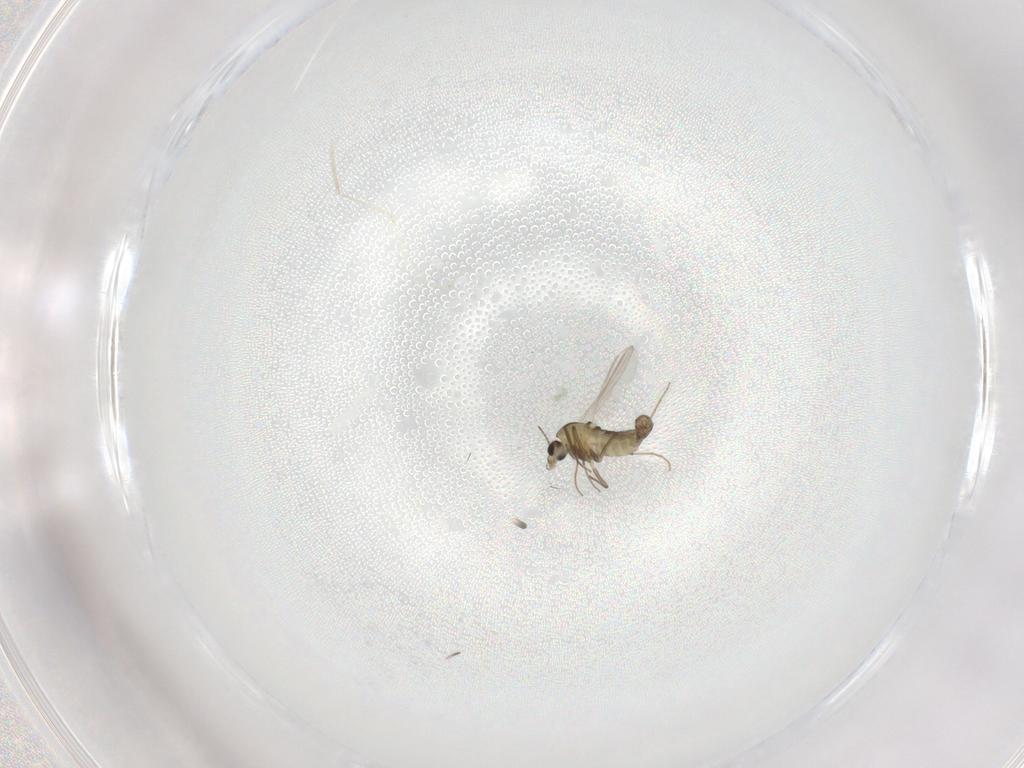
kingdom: Animalia
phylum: Arthropoda
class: Insecta
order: Diptera
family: Chironomidae
